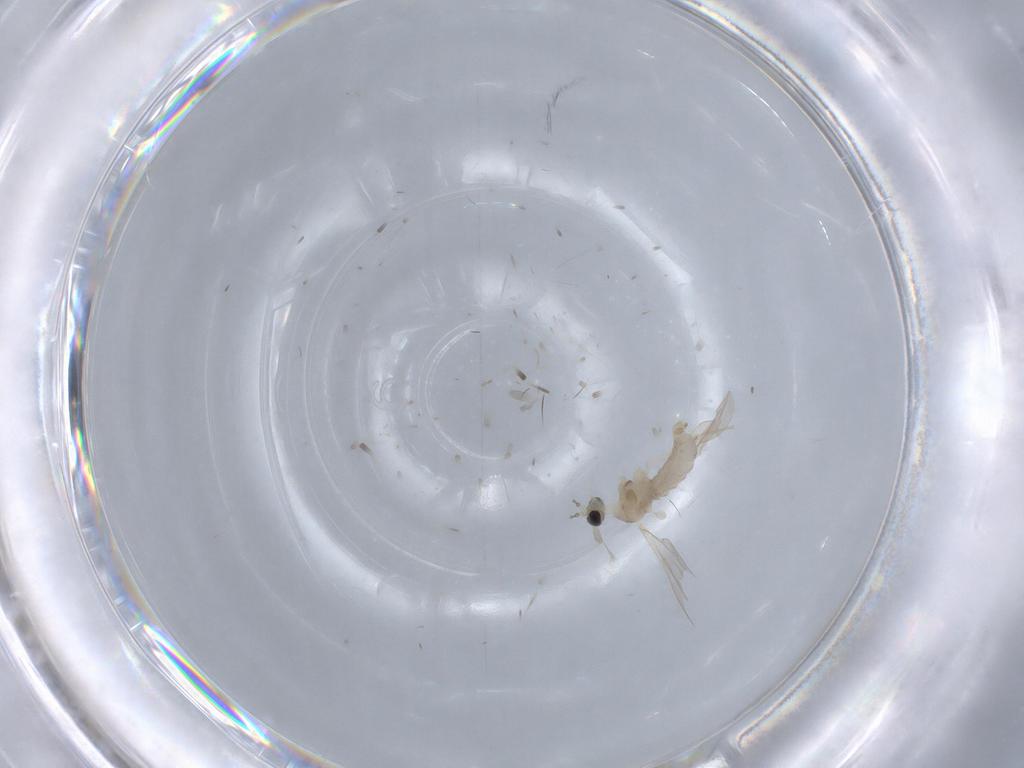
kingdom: Animalia
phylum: Arthropoda
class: Insecta
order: Diptera
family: Cecidomyiidae
